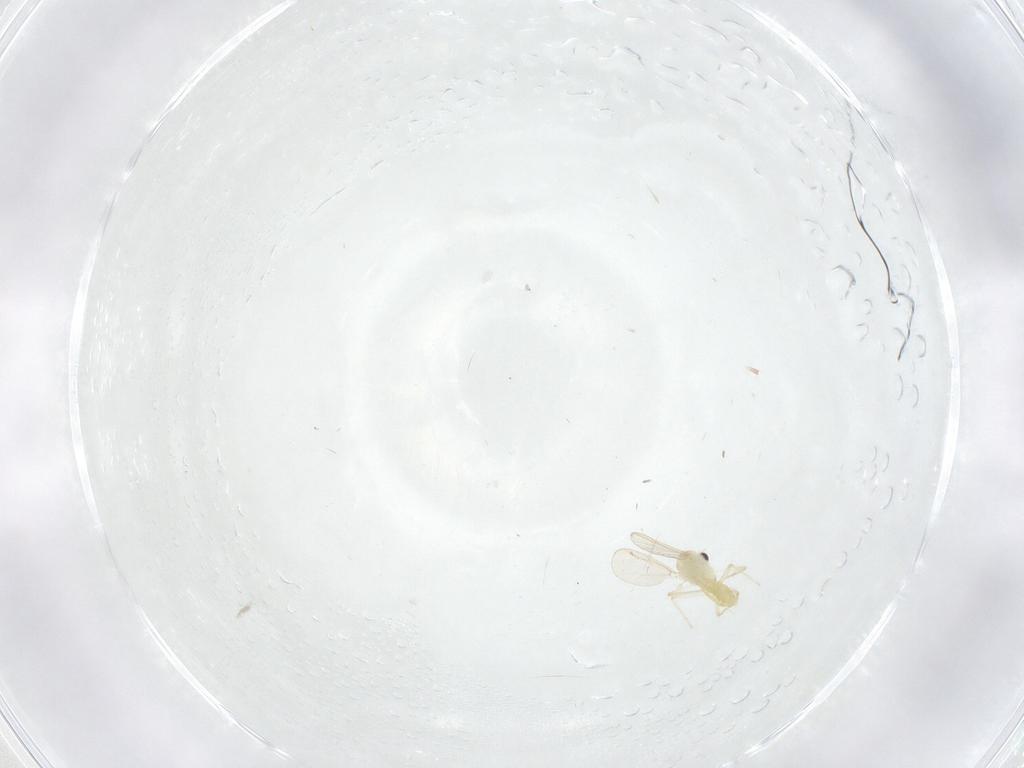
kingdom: Animalia
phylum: Arthropoda
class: Insecta
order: Diptera
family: Chironomidae
